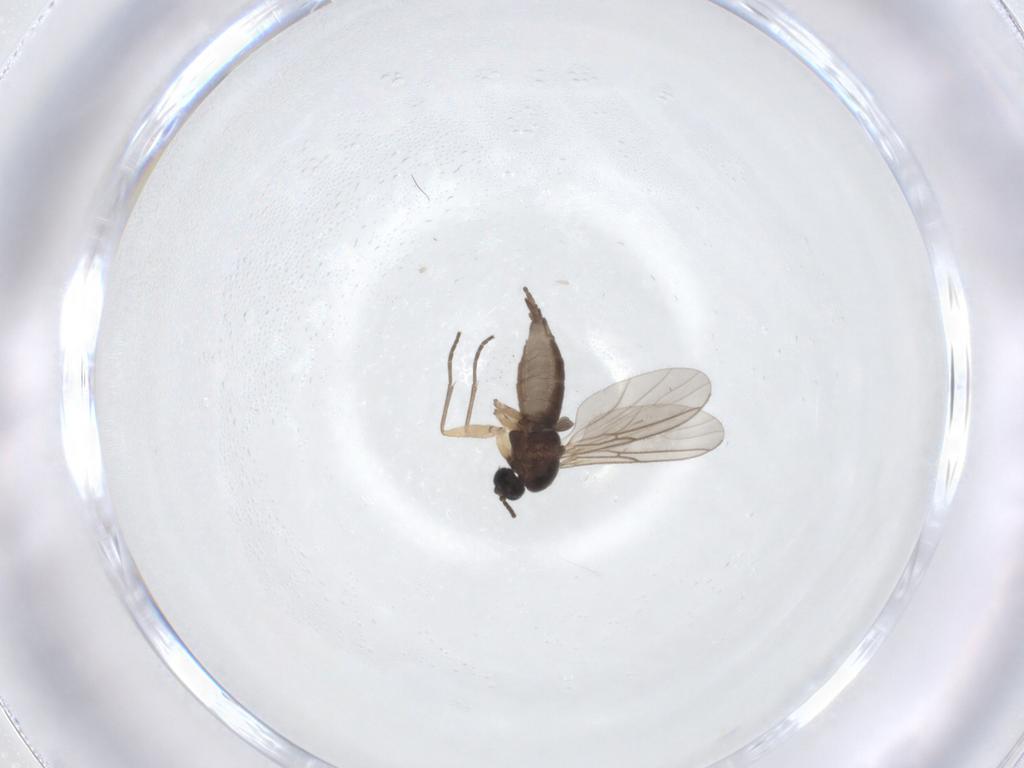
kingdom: Animalia
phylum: Arthropoda
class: Insecta
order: Diptera
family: Sciaridae
